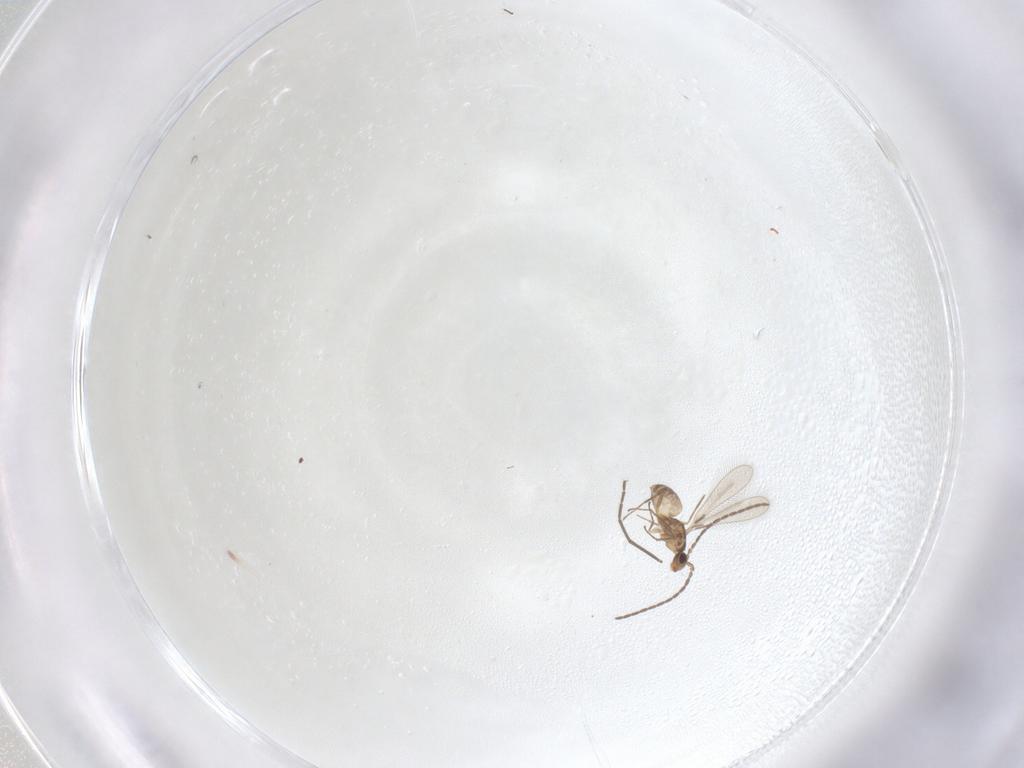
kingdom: Animalia
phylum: Arthropoda
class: Insecta
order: Hymenoptera
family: Mymaridae
